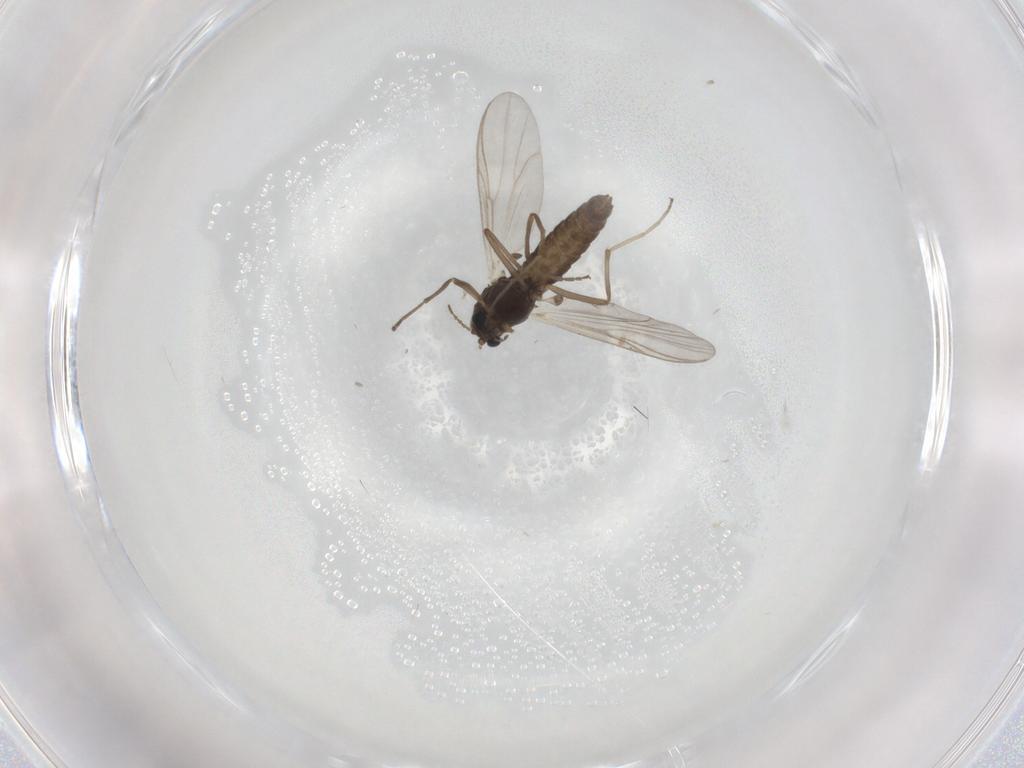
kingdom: Animalia
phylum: Arthropoda
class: Insecta
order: Diptera
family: Chironomidae
